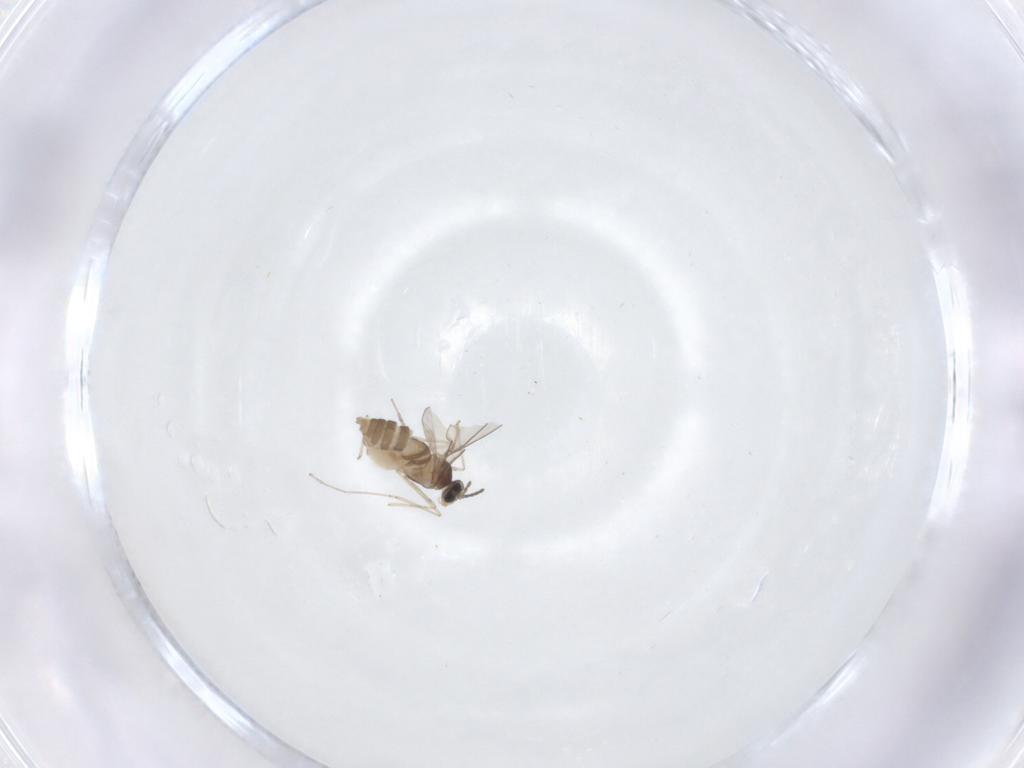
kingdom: Animalia
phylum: Arthropoda
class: Insecta
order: Diptera
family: Cecidomyiidae
